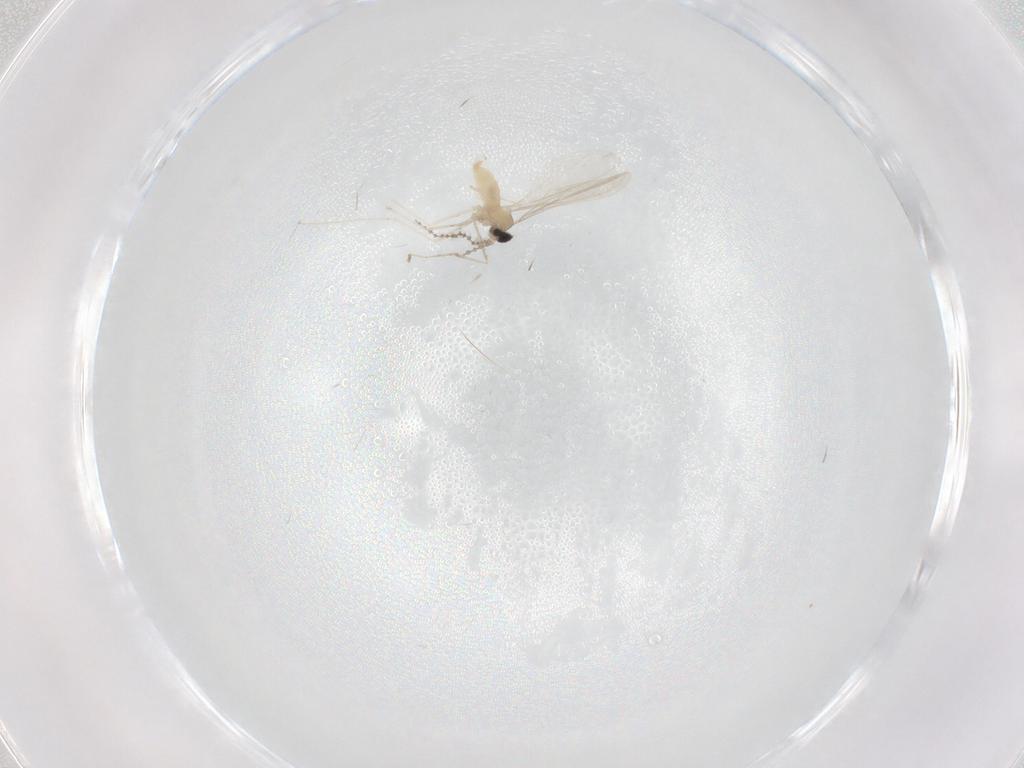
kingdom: Animalia
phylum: Arthropoda
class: Insecta
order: Diptera
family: Cecidomyiidae
